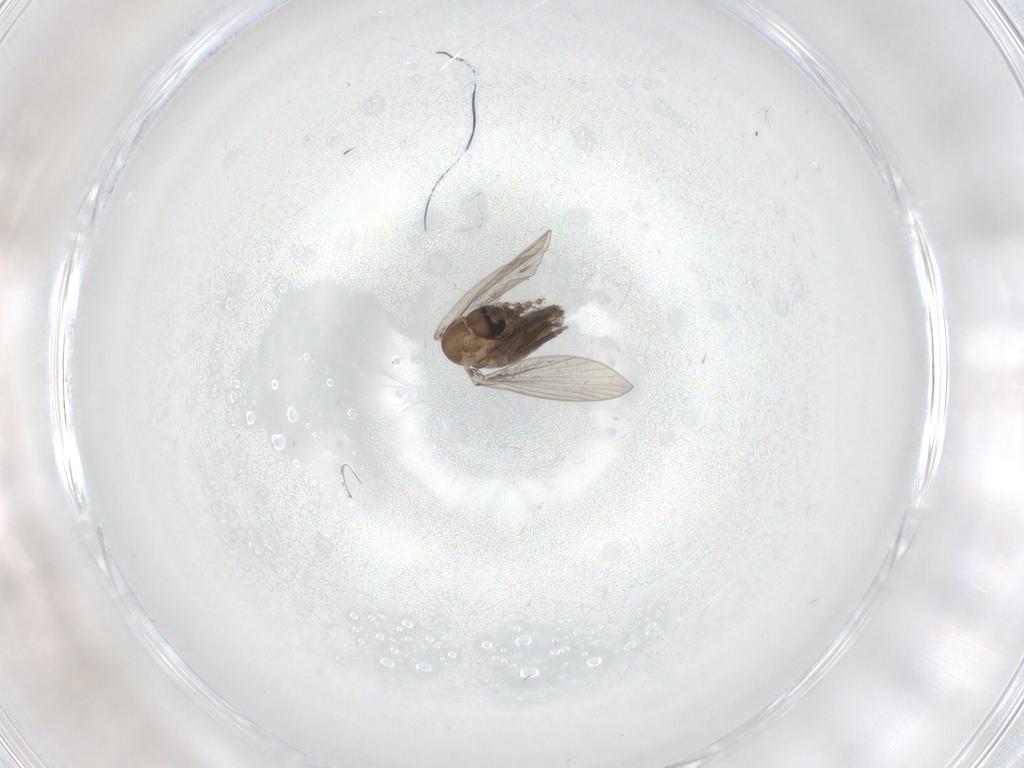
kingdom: Animalia
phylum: Arthropoda
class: Insecta
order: Diptera
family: Psychodidae
